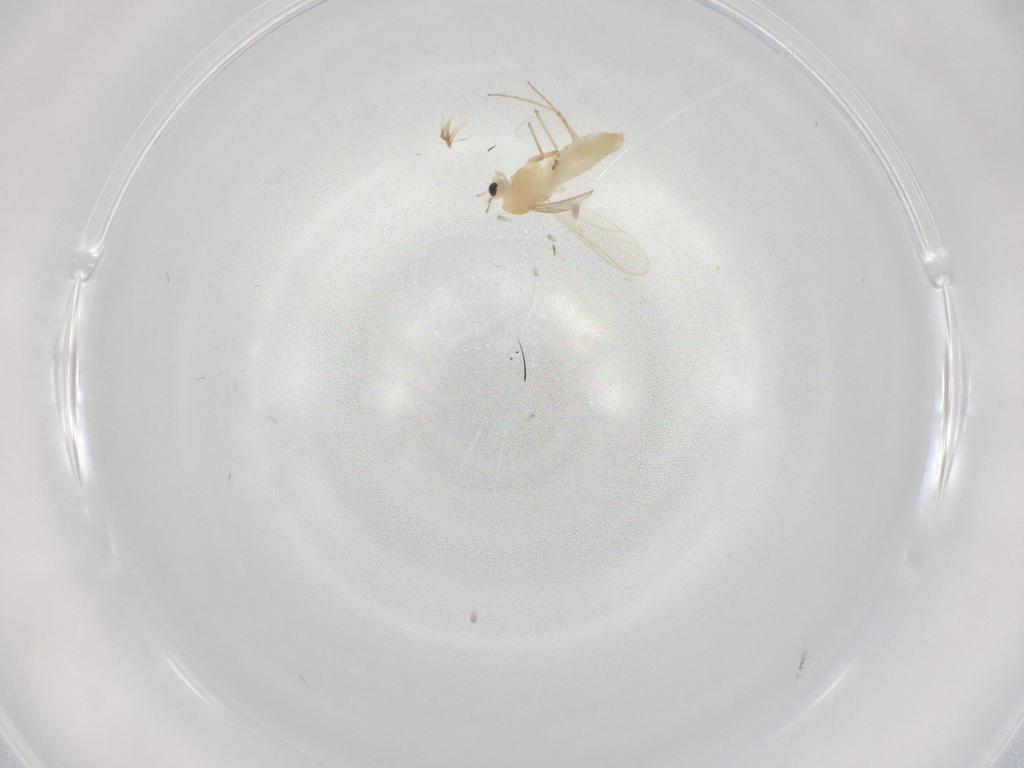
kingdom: Animalia
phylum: Arthropoda
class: Insecta
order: Diptera
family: Chironomidae
